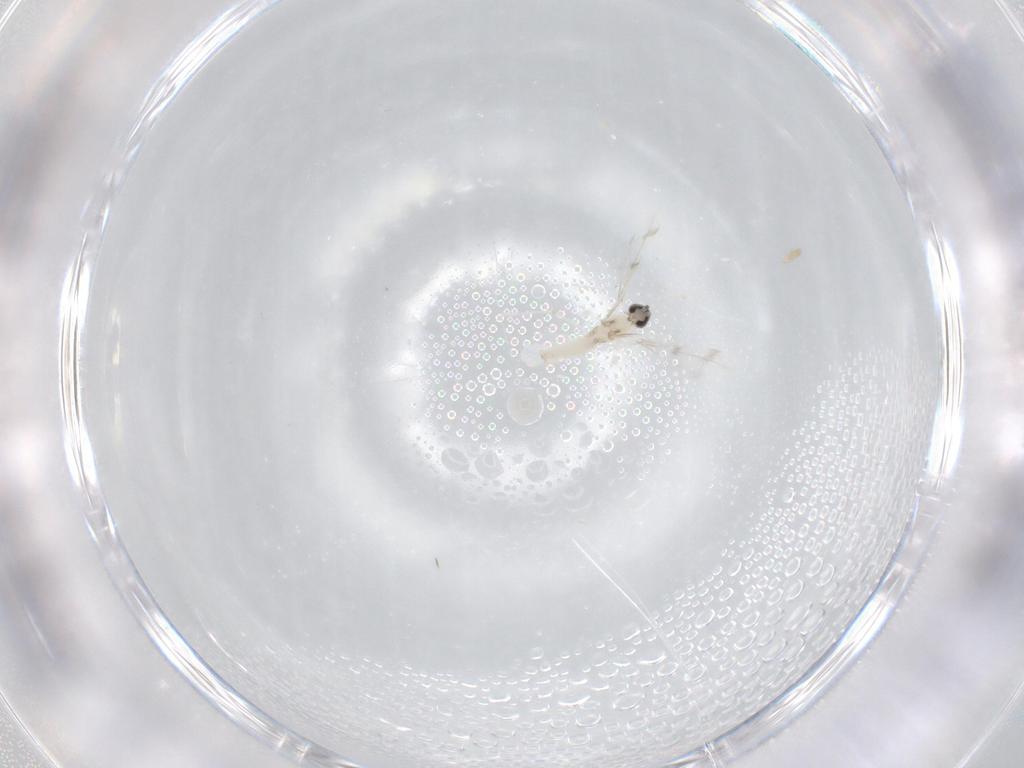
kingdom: Animalia
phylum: Arthropoda
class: Insecta
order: Diptera
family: Cecidomyiidae
